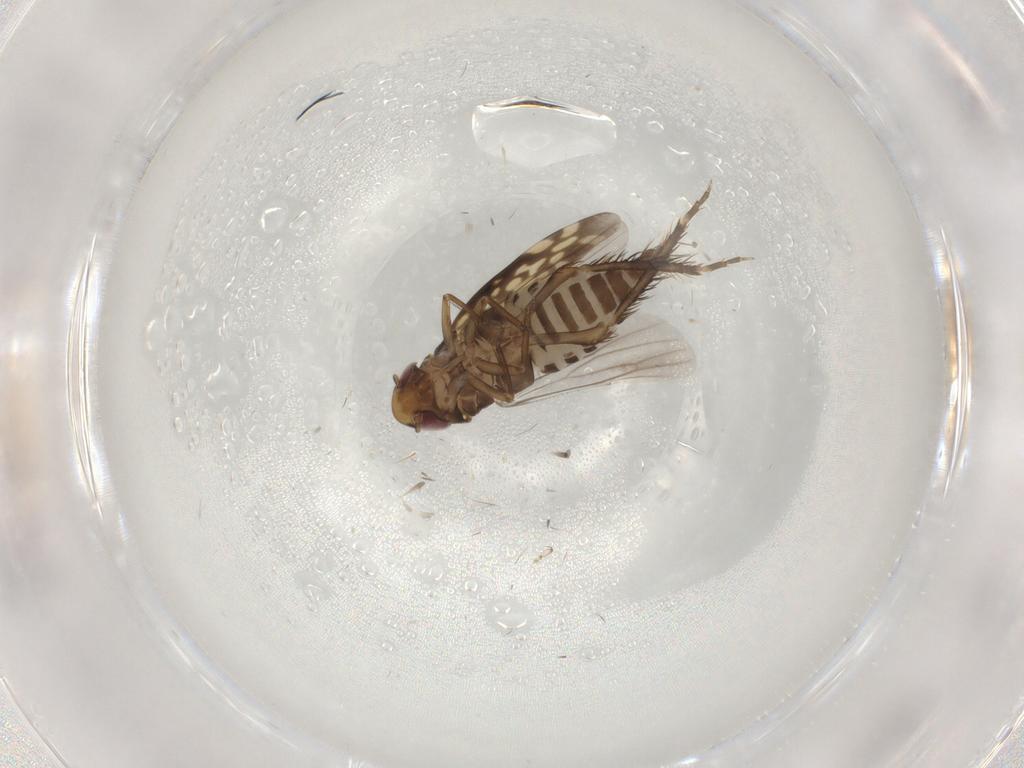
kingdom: Animalia
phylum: Arthropoda
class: Insecta
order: Hemiptera
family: Cicadellidae
